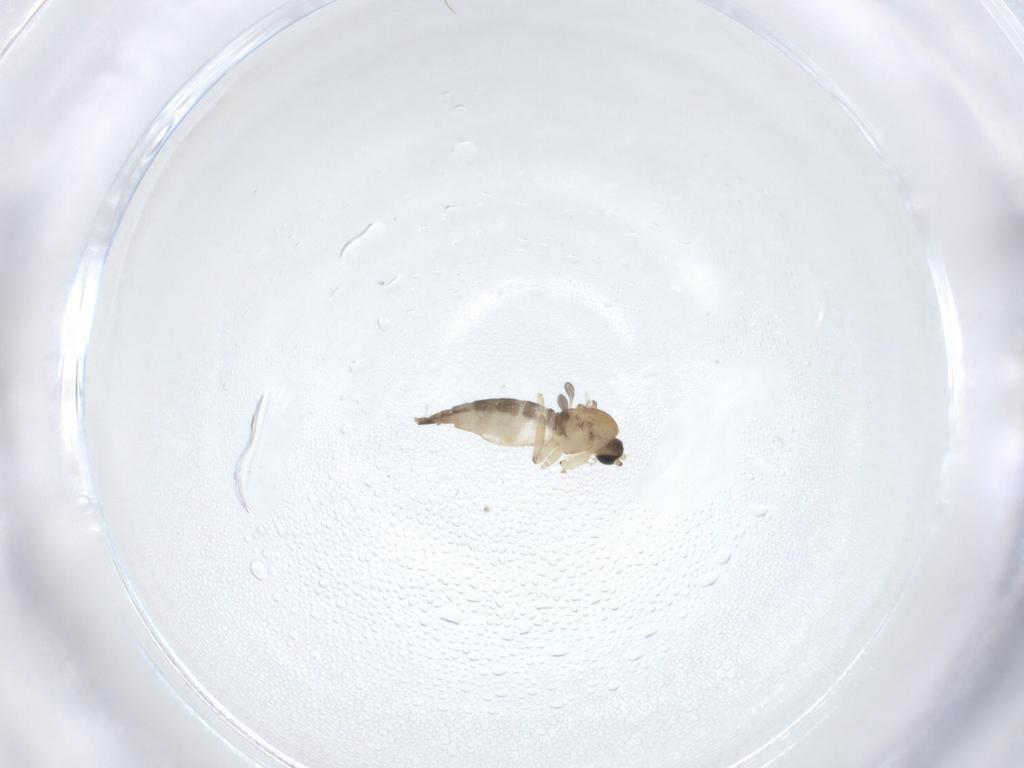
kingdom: Animalia
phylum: Arthropoda
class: Insecta
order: Diptera
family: Sciaridae
